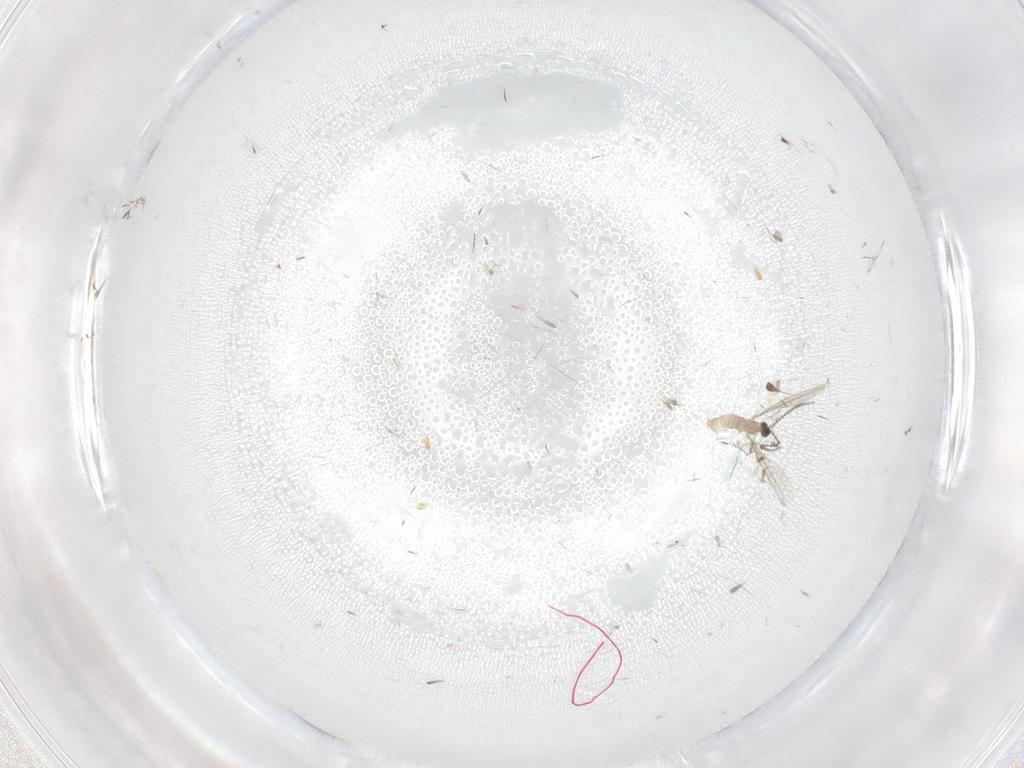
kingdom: Animalia
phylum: Arthropoda
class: Insecta
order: Diptera
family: Cecidomyiidae
